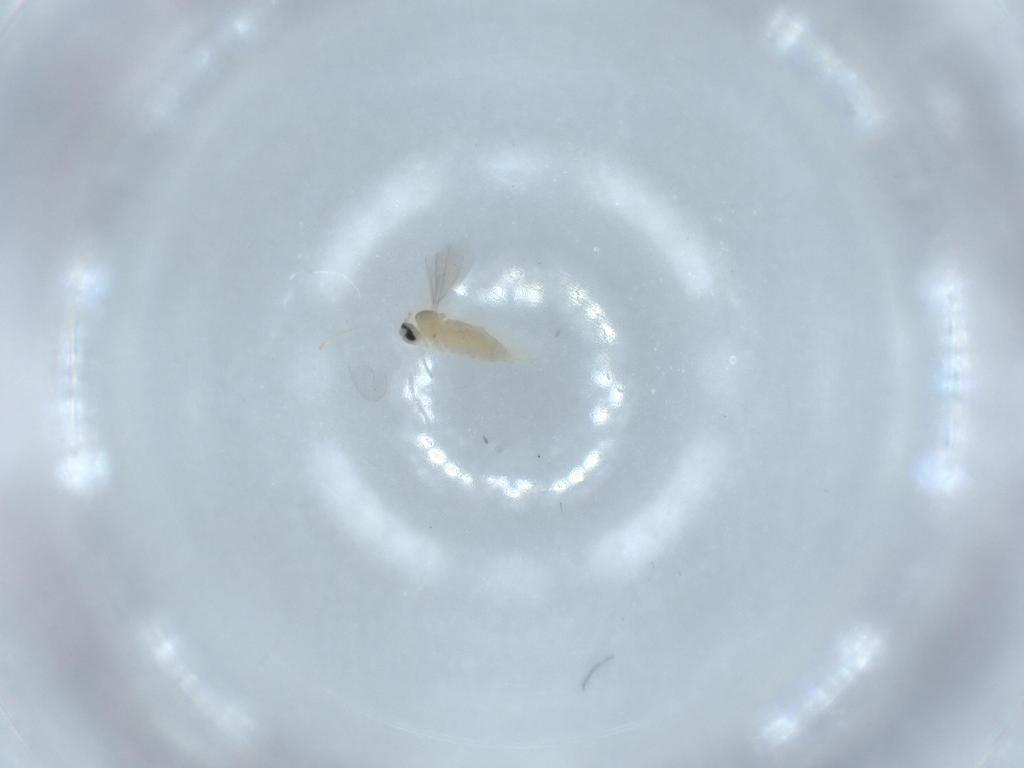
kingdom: Animalia
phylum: Arthropoda
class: Insecta
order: Diptera
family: Cecidomyiidae
